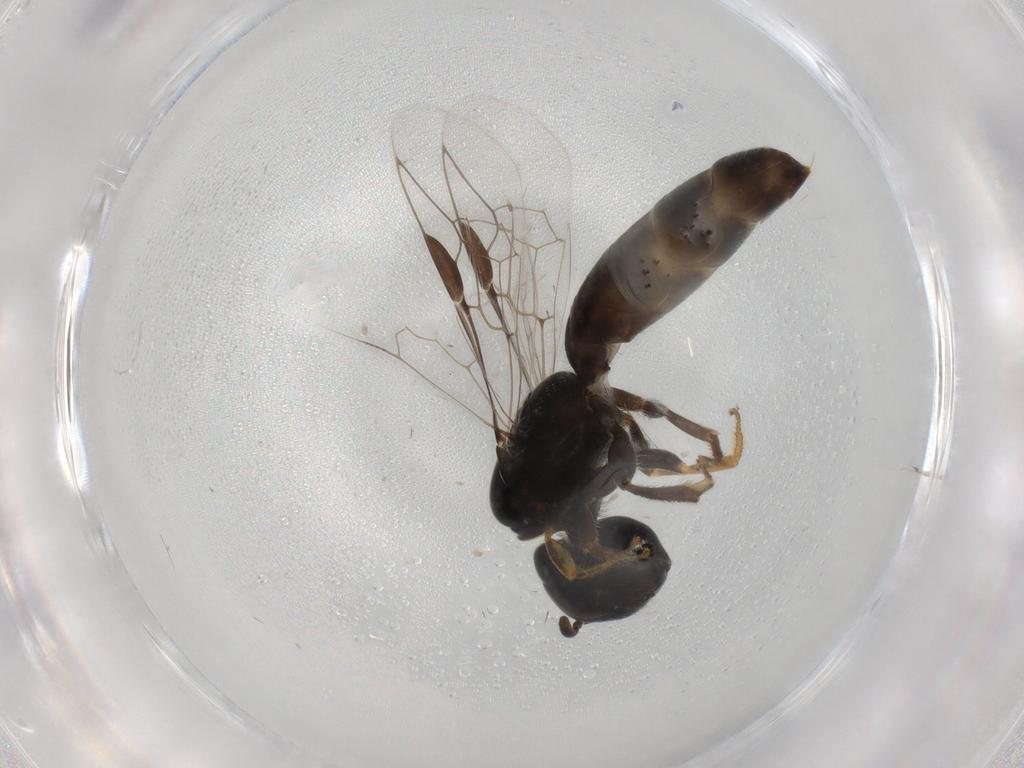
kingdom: Animalia
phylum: Arthropoda
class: Insecta
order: Hymenoptera
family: Colletidae
